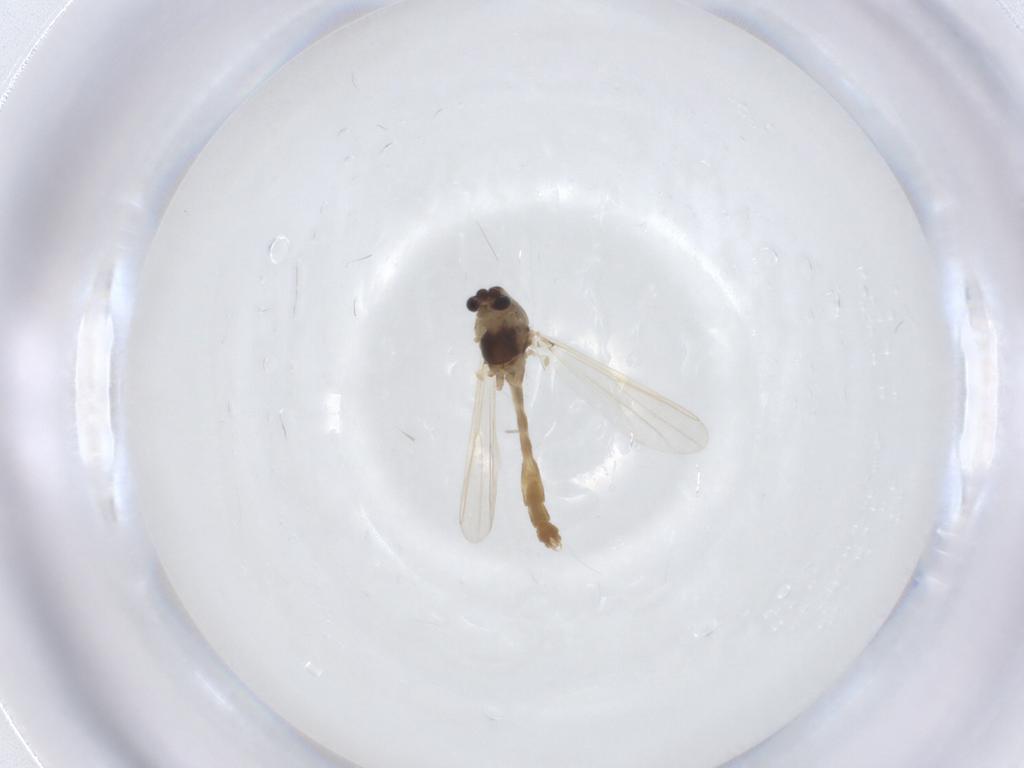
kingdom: Animalia
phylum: Arthropoda
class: Insecta
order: Diptera
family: Chironomidae
